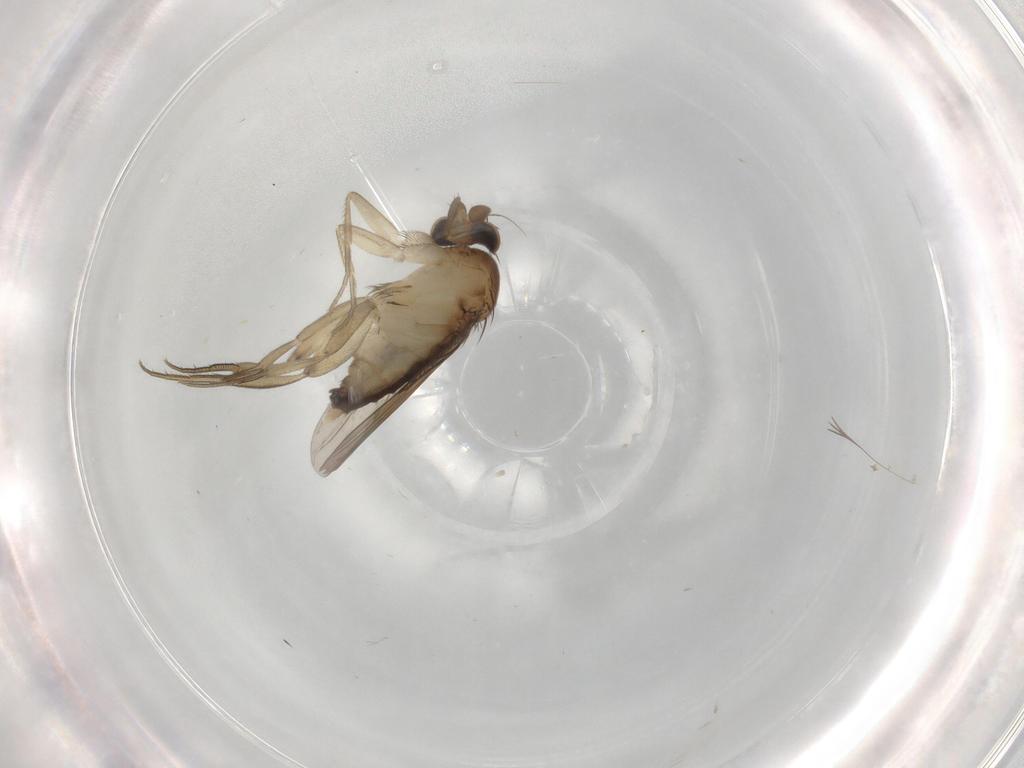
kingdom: Animalia
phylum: Arthropoda
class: Insecta
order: Diptera
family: Phoridae
